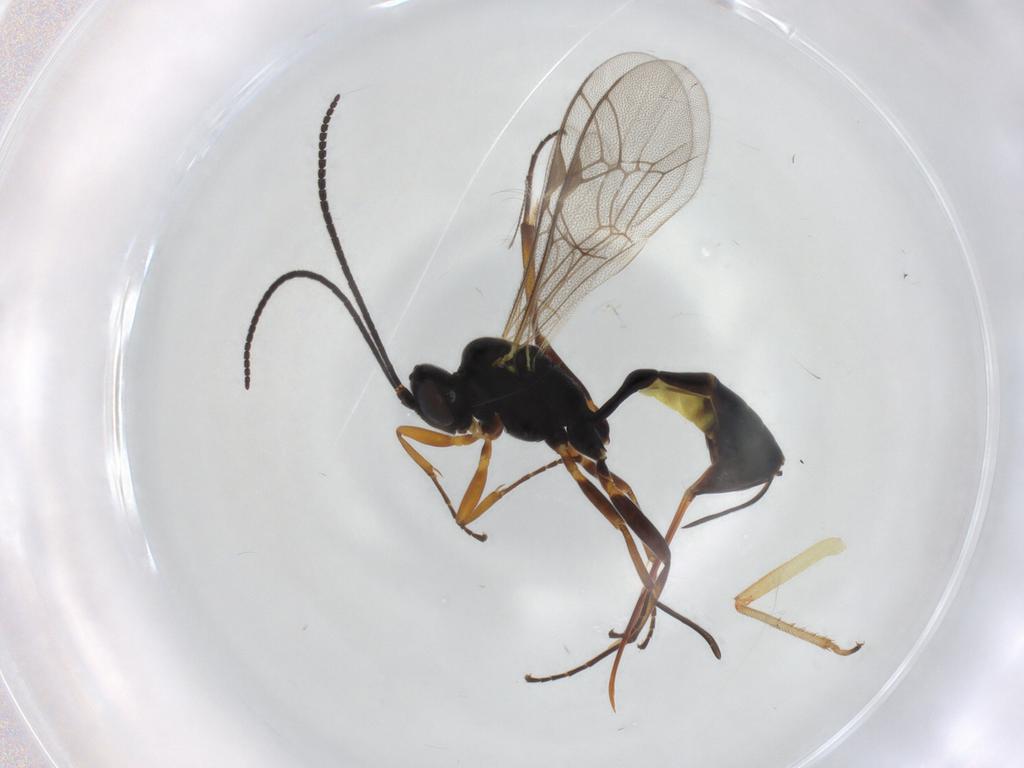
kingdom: Animalia
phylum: Arthropoda
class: Insecta
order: Hymenoptera
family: Ichneumonidae
